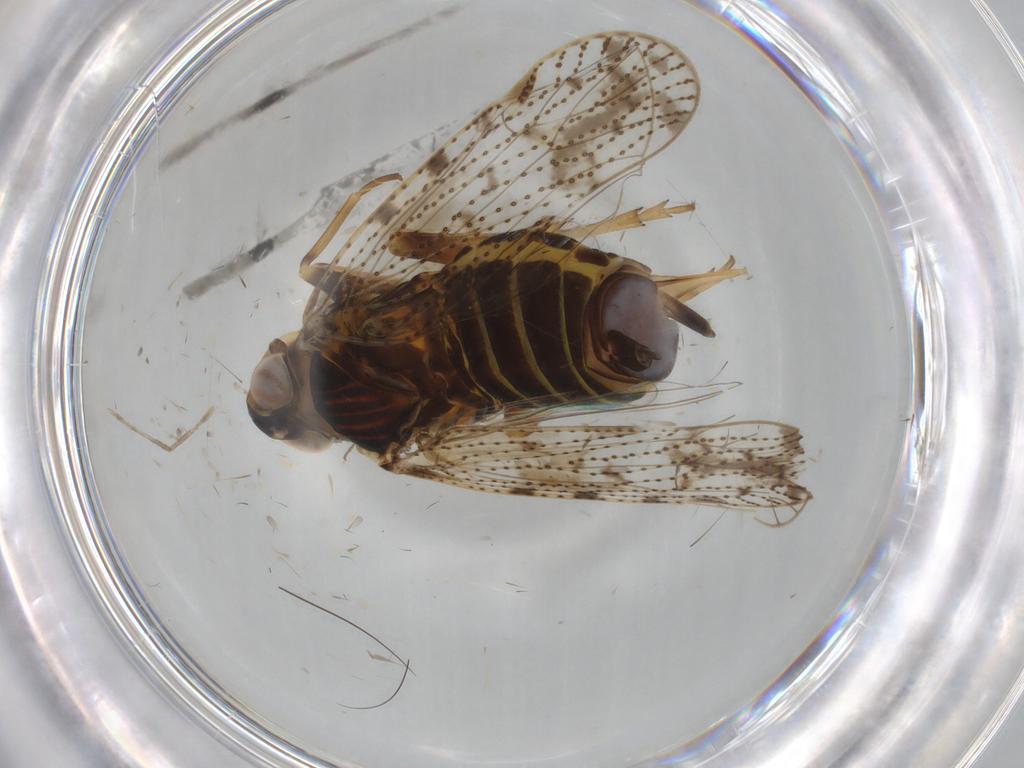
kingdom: Animalia
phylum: Arthropoda
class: Insecta
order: Hemiptera
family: Cixiidae
